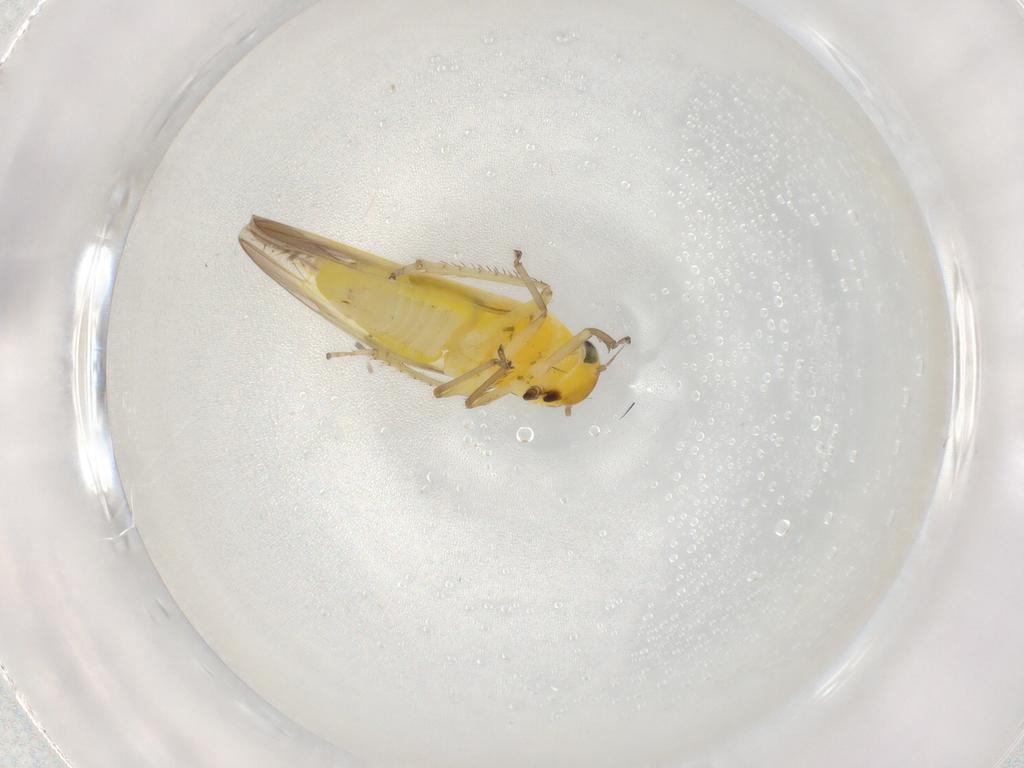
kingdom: Animalia
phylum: Arthropoda
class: Insecta
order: Hemiptera
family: Cicadellidae
